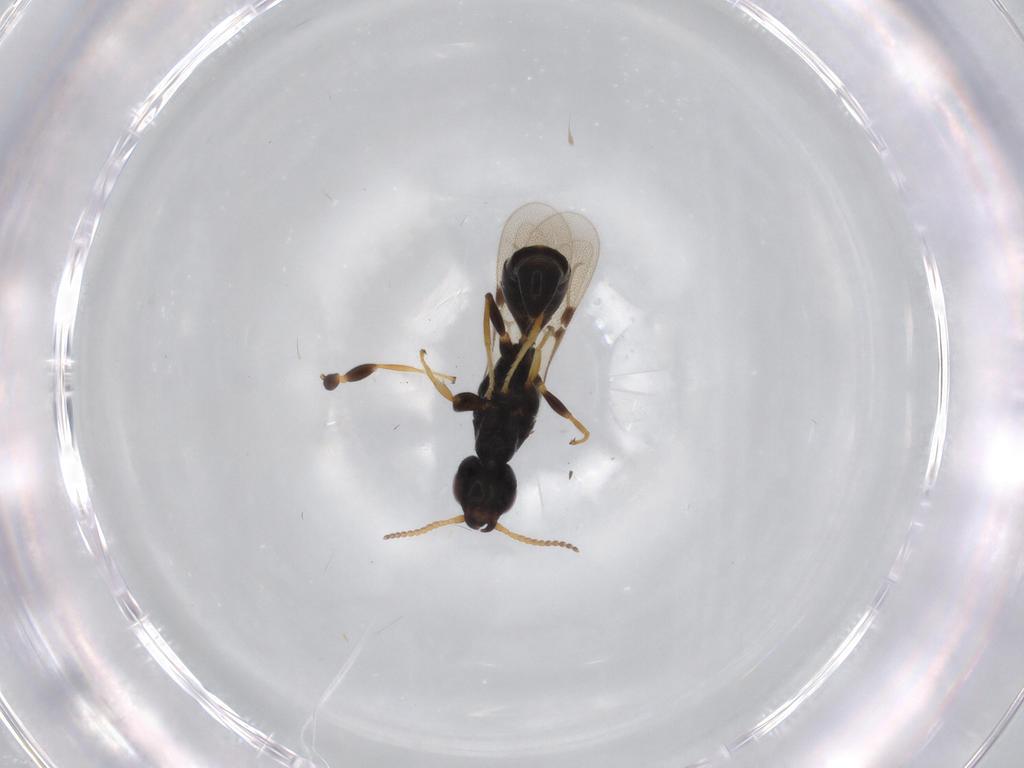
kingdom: Animalia
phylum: Arthropoda
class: Insecta
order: Hymenoptera
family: Bethylidae
